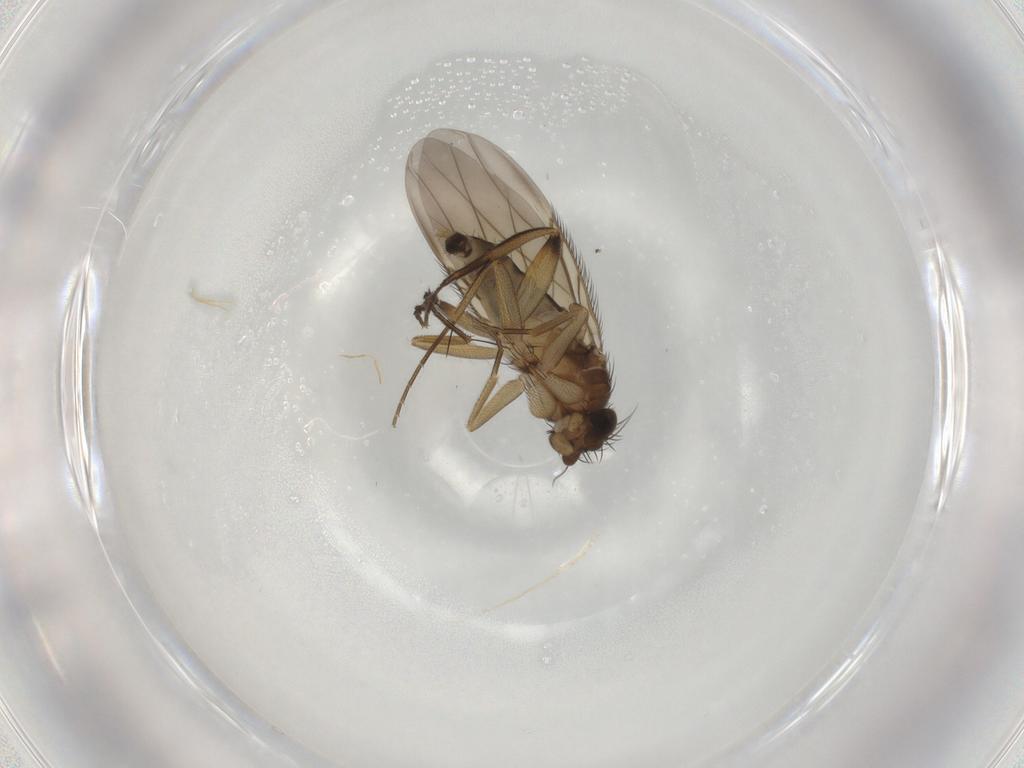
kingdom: Animalia
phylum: Arthropoda
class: Insecta
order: Diptera
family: Phoridae
